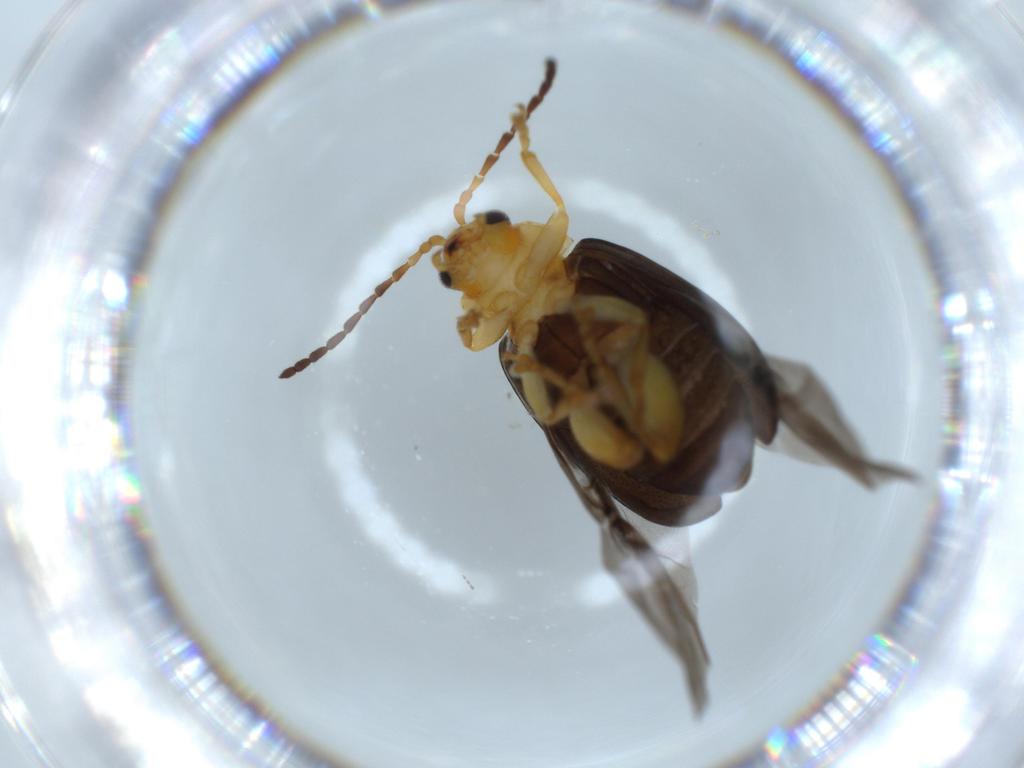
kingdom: Animalia
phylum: Arthropoda
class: Insecta
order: Coleoptera
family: Chrysomelidae
